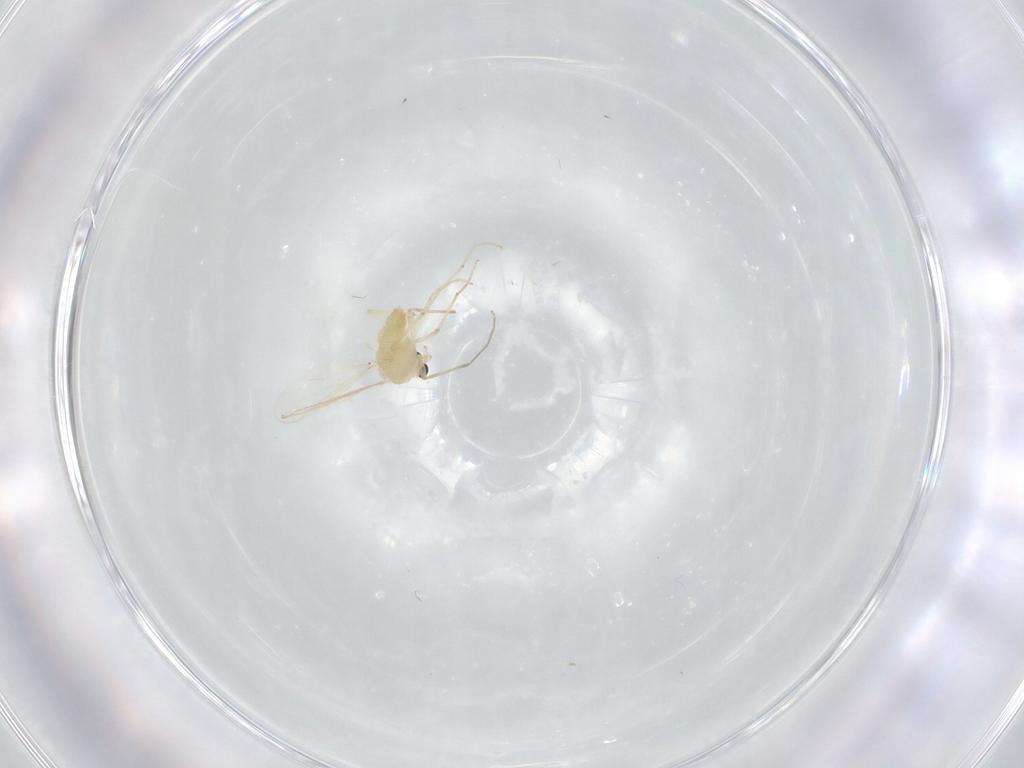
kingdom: Animalia
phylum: Arthropoda
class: Insecta
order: Diptera
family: Chironomidae
